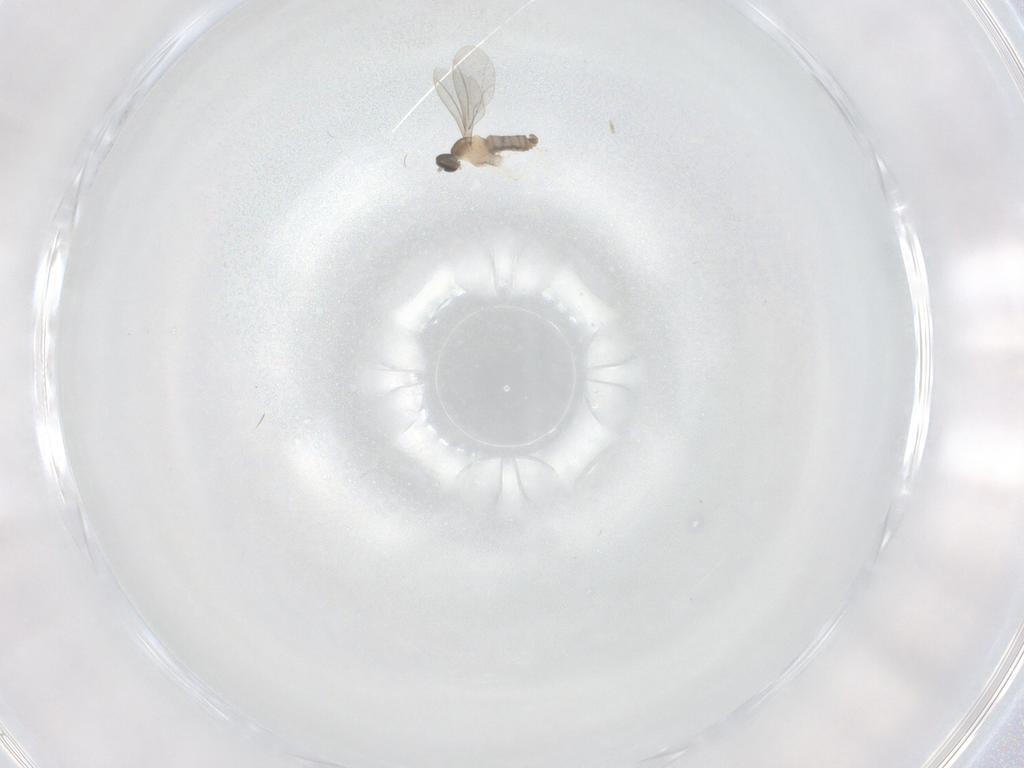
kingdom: Animalia
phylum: Arthropoda
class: Insecta
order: Diptera
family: Cecidomyiidae
